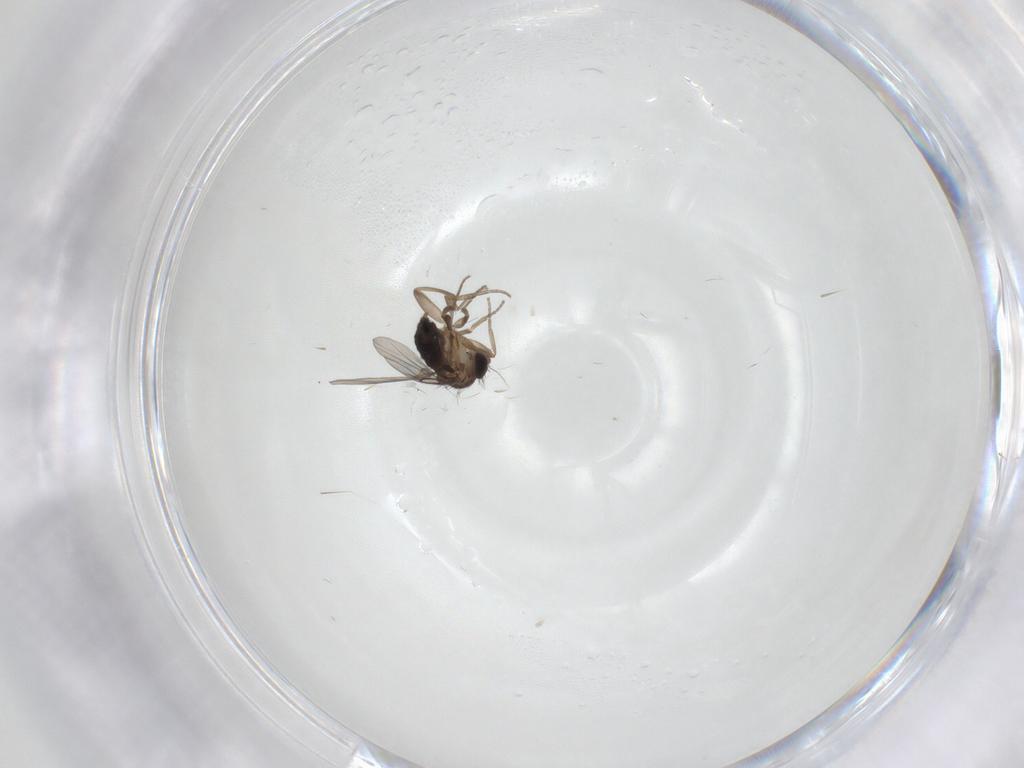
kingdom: Animalia
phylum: Arthropoda
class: Insecta
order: Diptera
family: Phoridae
